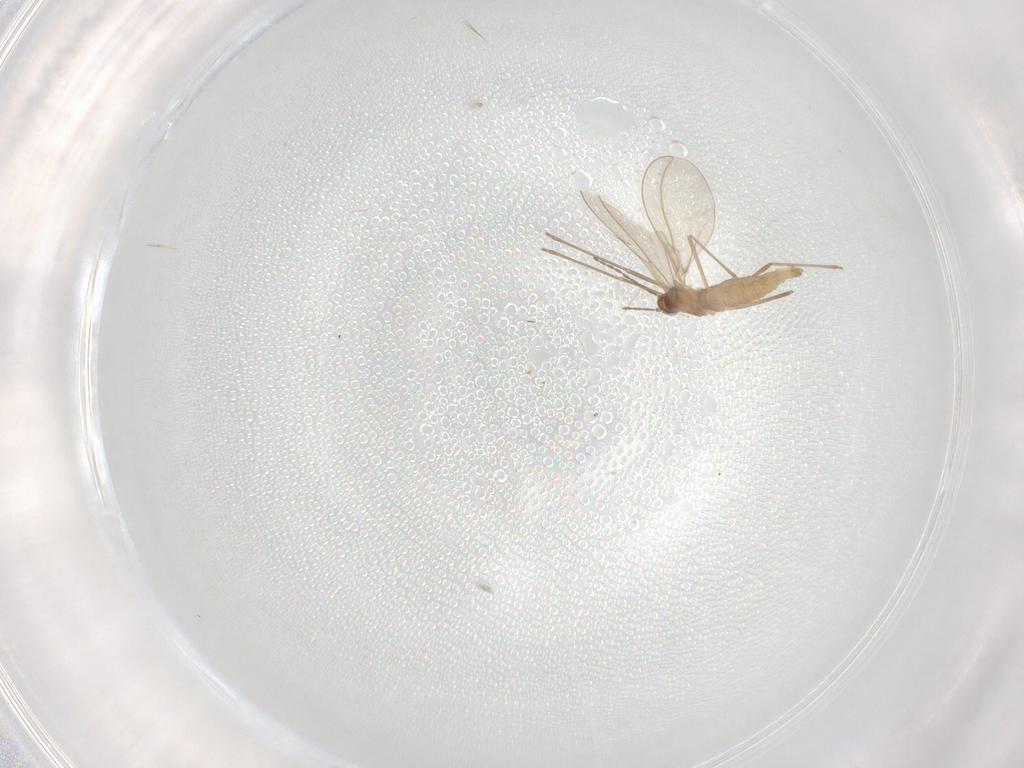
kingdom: Animalia
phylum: Arthropoda
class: Insecta
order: Diptera
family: Cecidomyiidae
